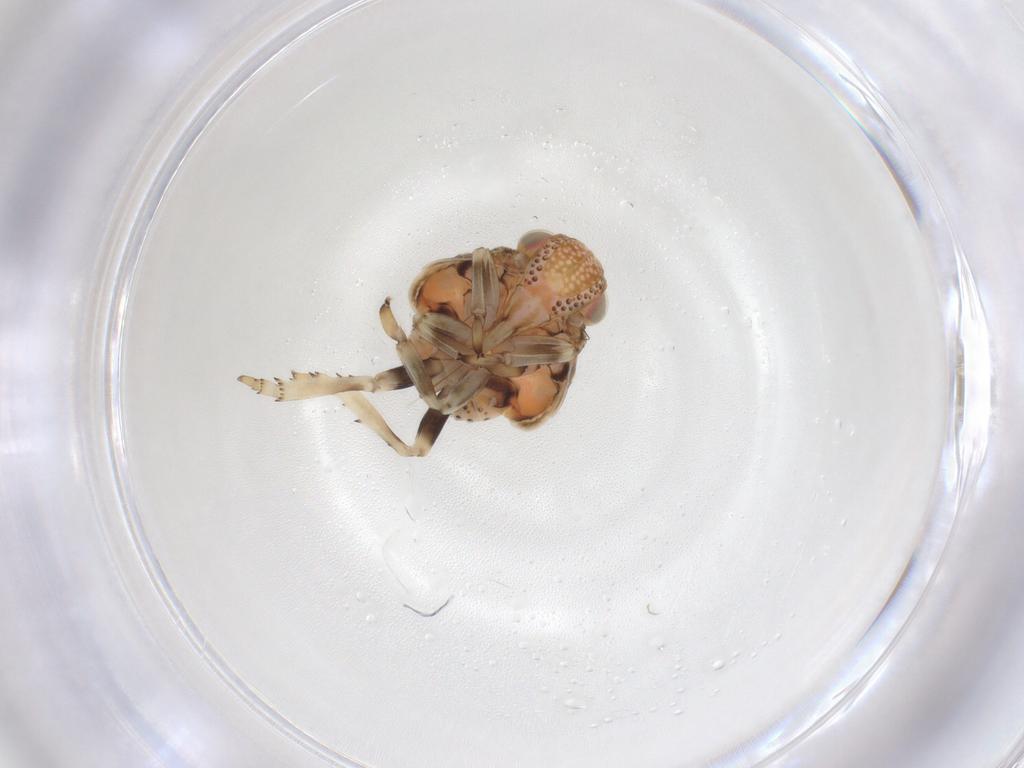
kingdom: Animalia
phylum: Arthropoda
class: Insecta
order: Hemiptera
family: Nogodinidae
